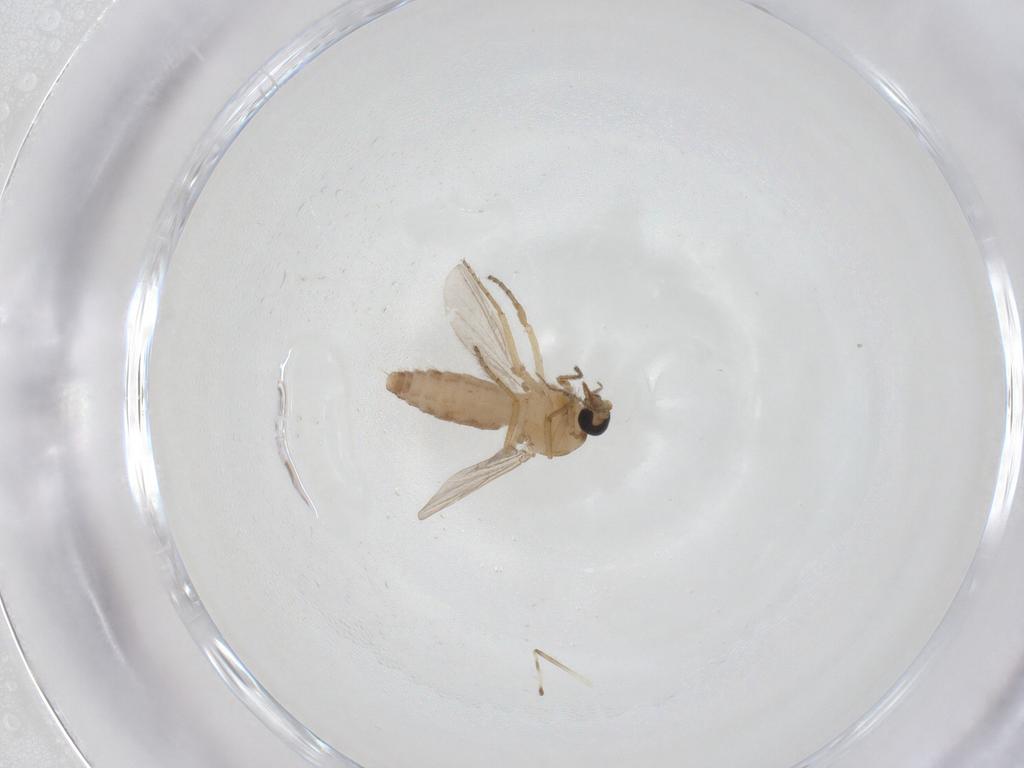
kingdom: Animalia
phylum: Arthropoda
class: Insecta
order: Diptera
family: Ceratopogonidae
